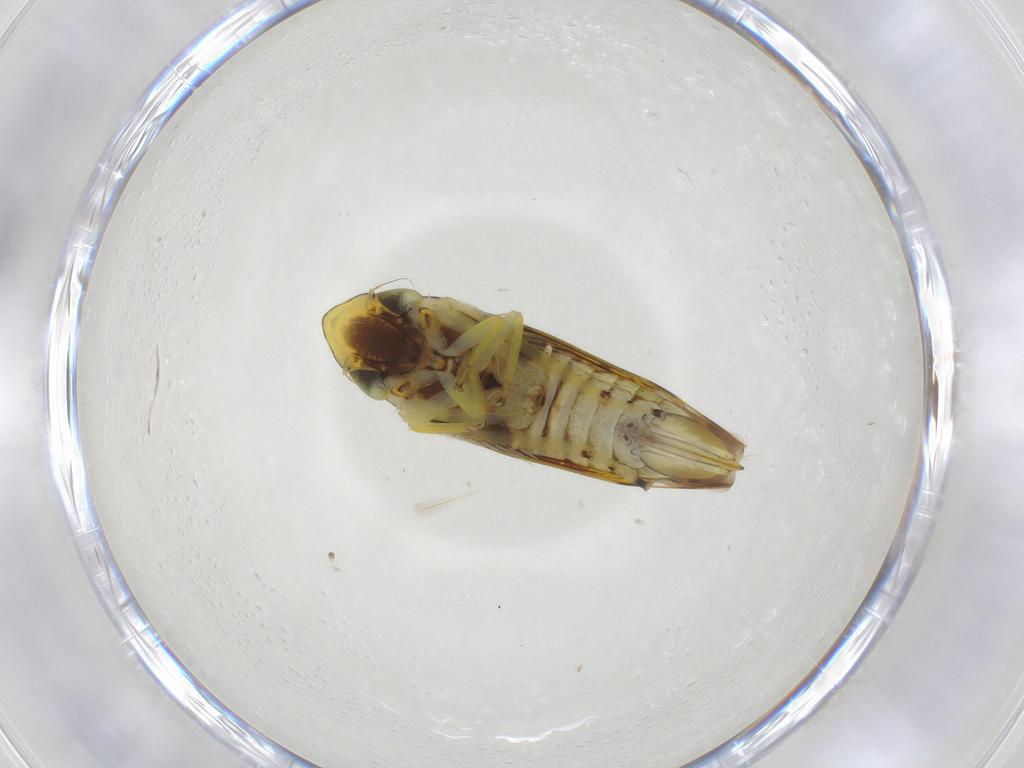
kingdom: Animalia
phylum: Arthropoda
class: Insecta
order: Hemiptera
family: Cicadellidae
